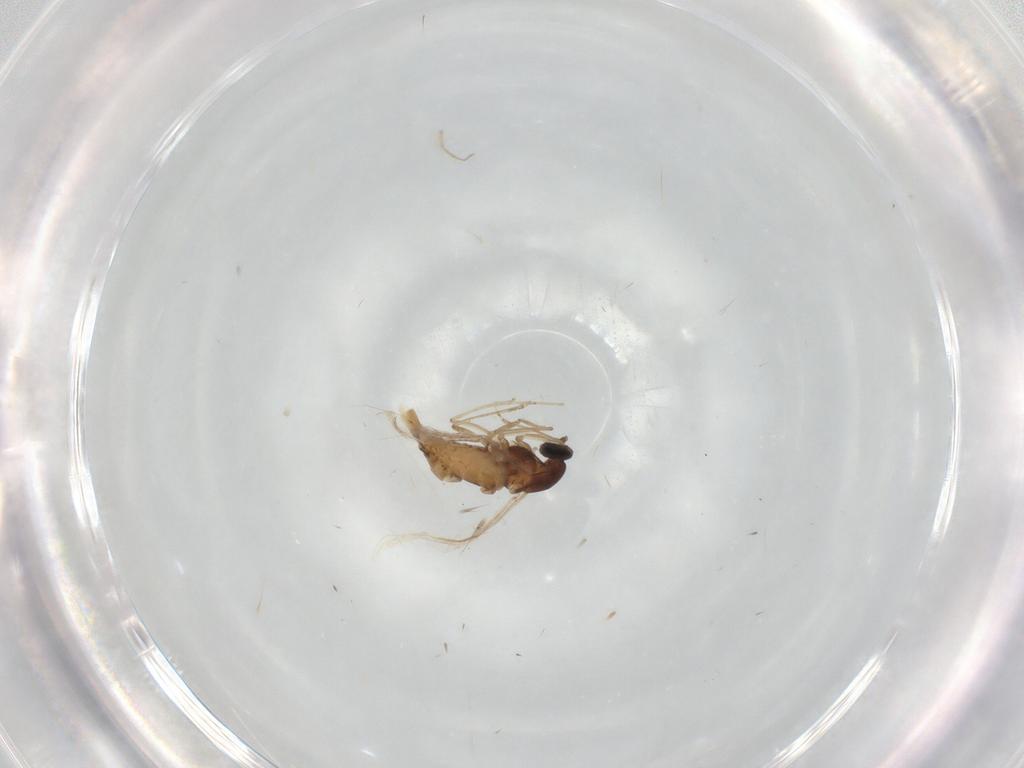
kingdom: Animalia
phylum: Arthropoda
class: Insecta
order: Diptera
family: Cecidomyiidae
